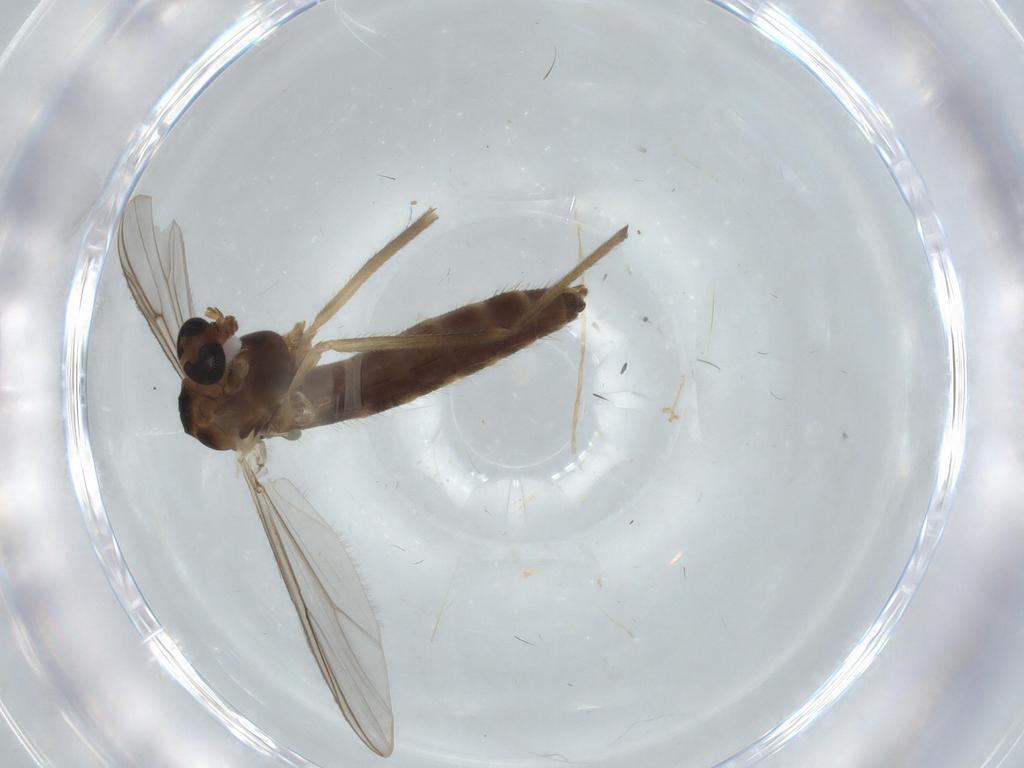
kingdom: Animalia
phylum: Arthropoda
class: Insecta
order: Diptera
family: Chironomidae
